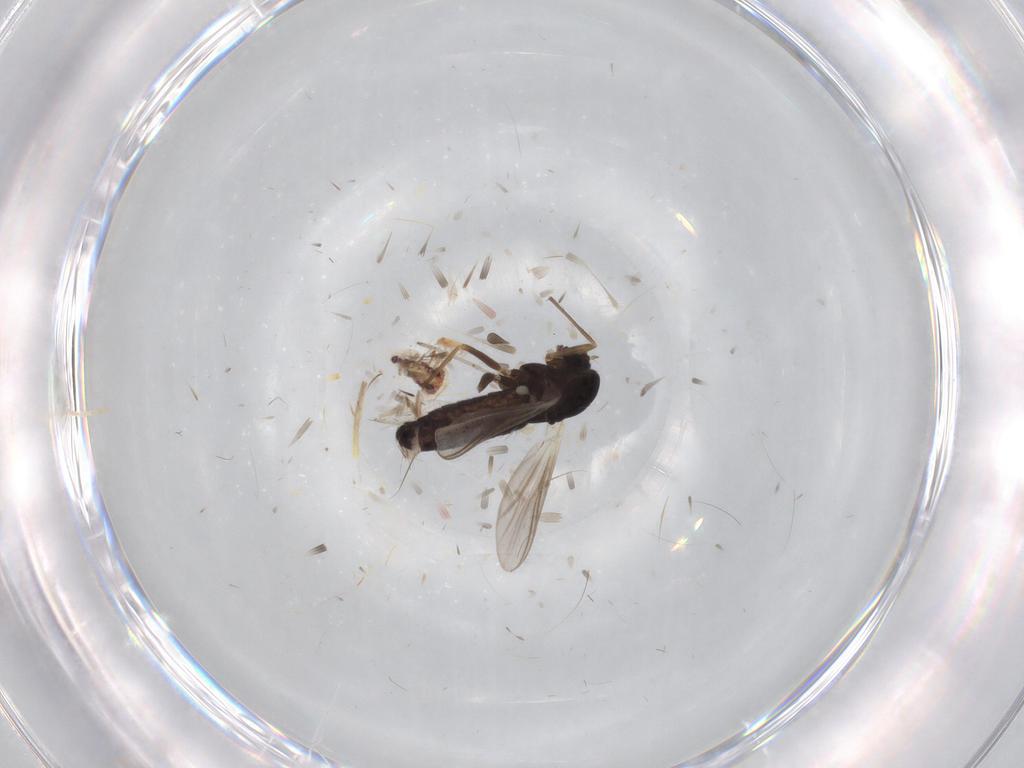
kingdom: Animalia
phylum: Arthropoda
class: Insecta
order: Diptera
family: Chironomidae
